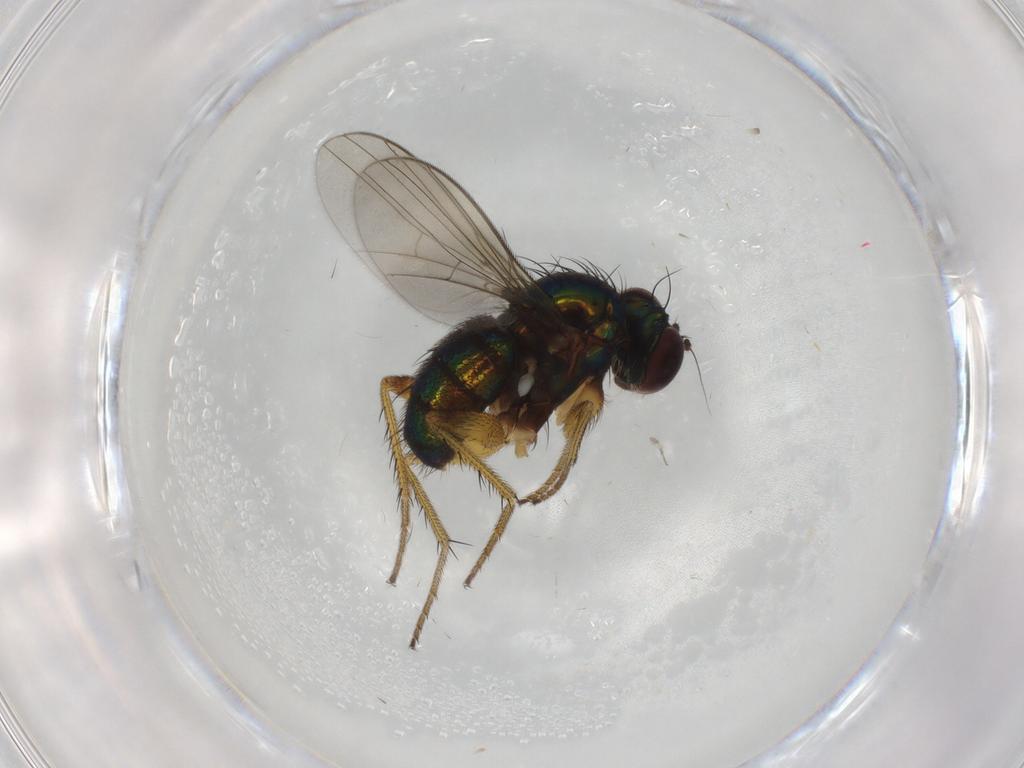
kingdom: Animalia
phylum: Arthropoda
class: Insecta
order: Diptera
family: Dolichopodidae
